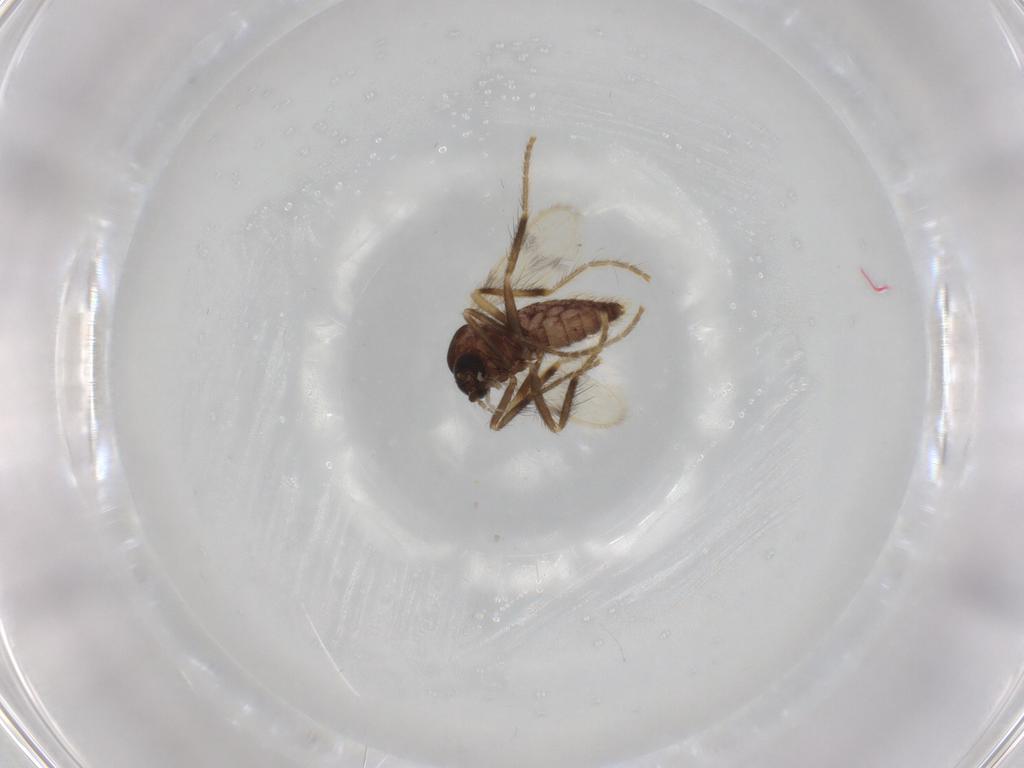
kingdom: Animalia
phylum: Arthropoda
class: Insecta
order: Diptera
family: Corethrellidae
